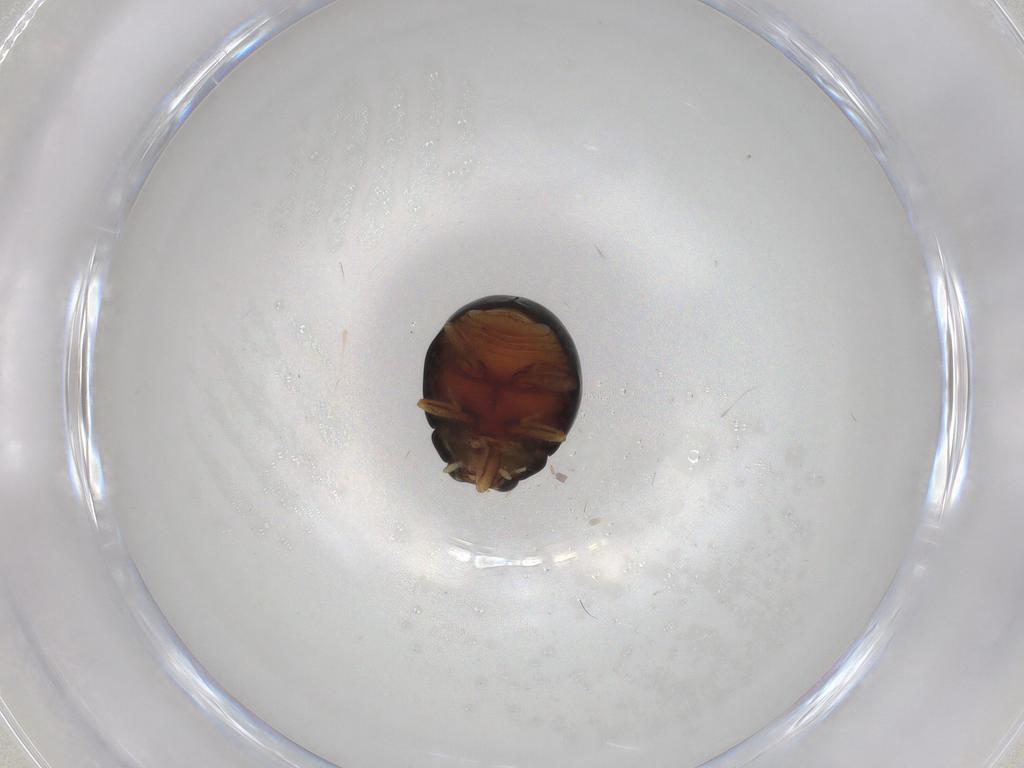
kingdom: Animalia
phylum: Arthropoda
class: Insecta
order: Coleoptera
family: Coccinellidae
